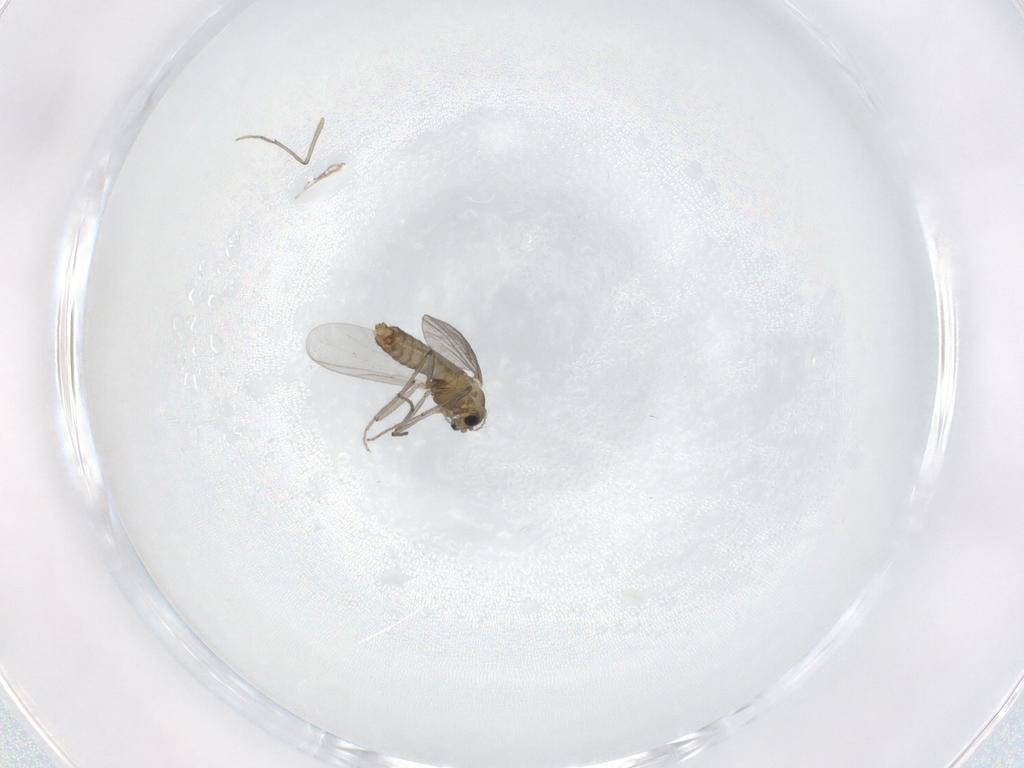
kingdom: Animalia
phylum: Arthropoda
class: Insecta
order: Diptera
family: Chironomidae
